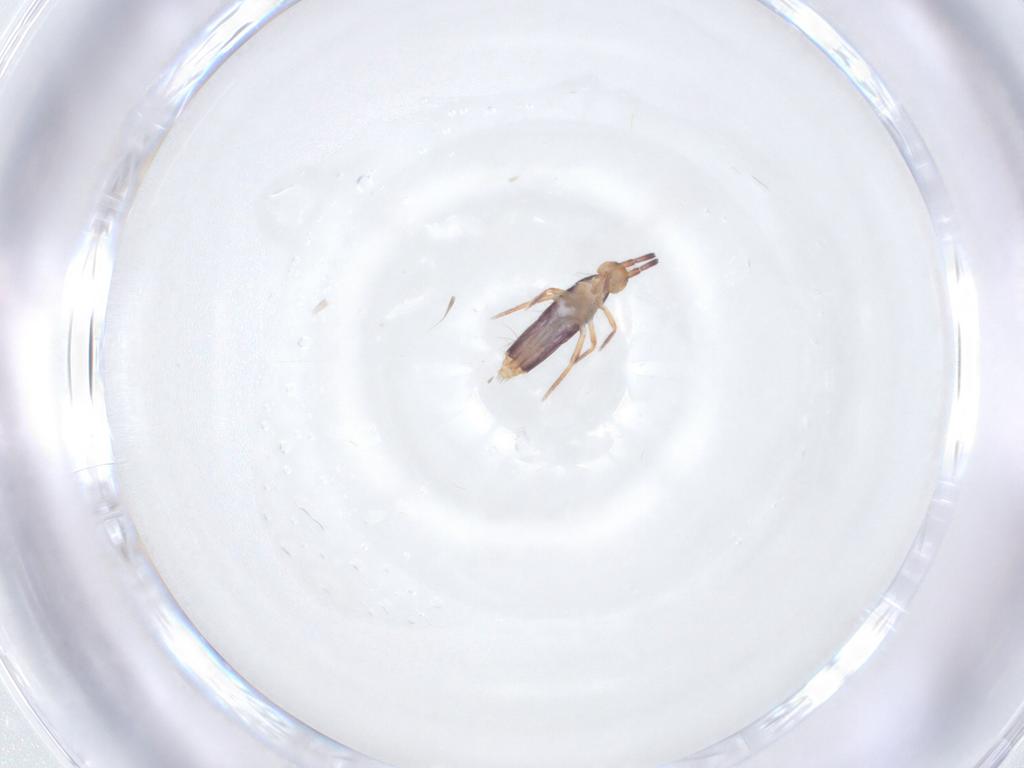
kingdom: Animalia
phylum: Arthropoda
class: Collembola
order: Entomobryomorpha
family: Entomobryidae
